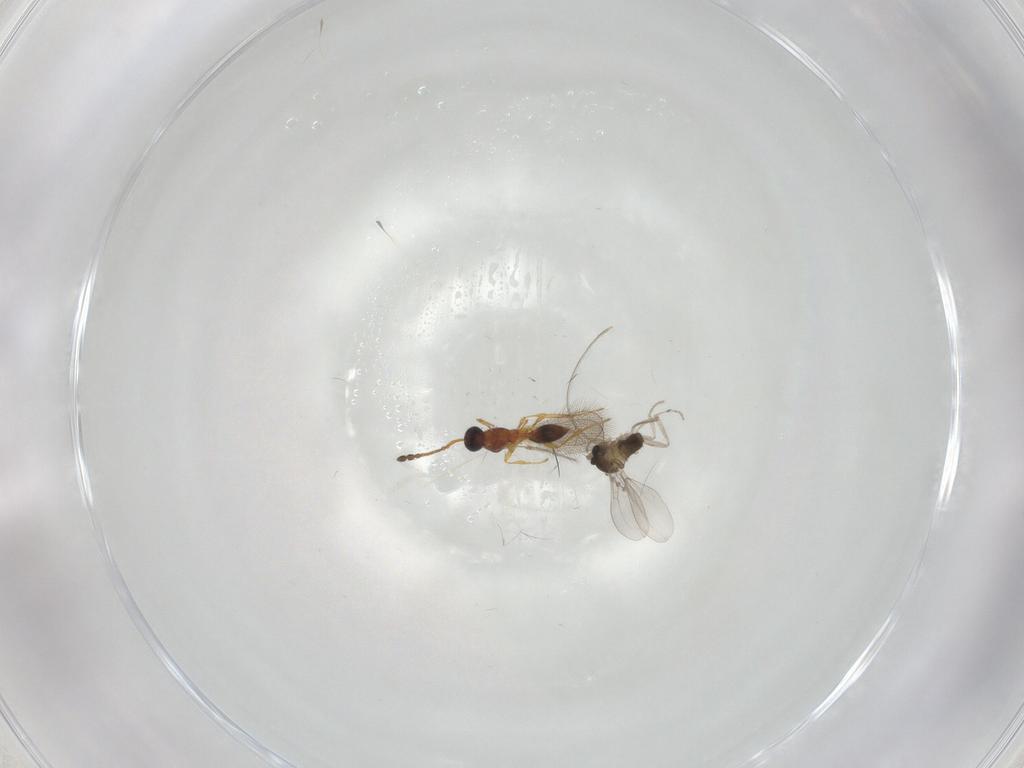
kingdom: Animalia
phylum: Arthropoda
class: Insecta
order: Hymenoptera
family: Diapriidae
